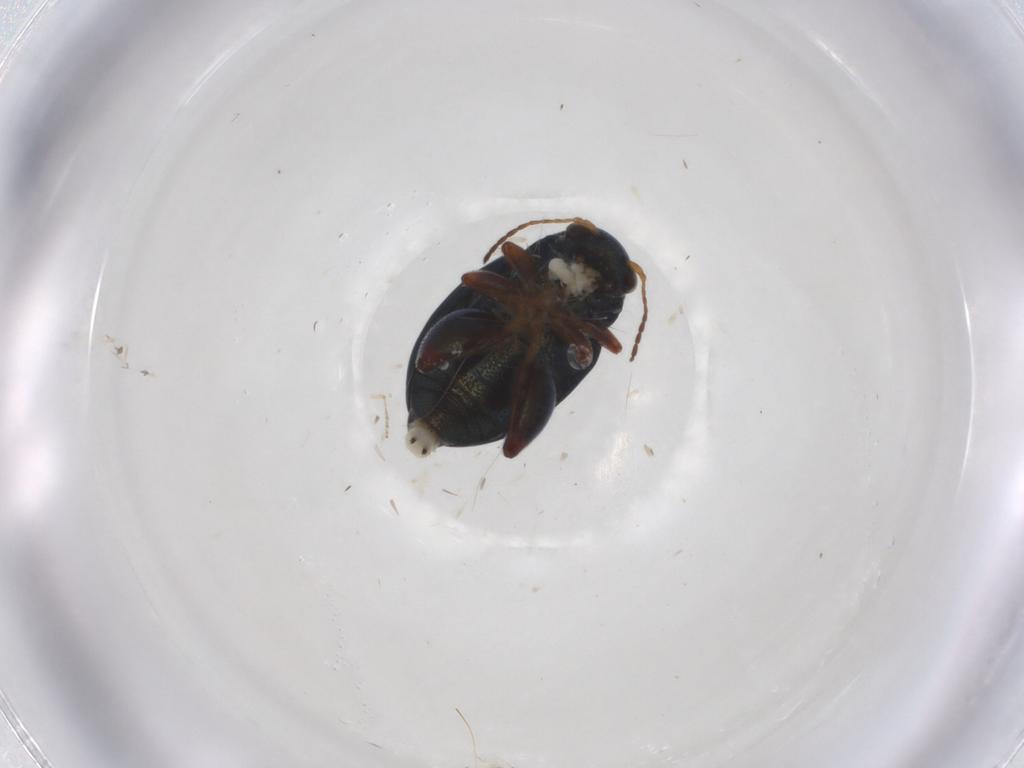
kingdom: Animalia
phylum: Arthropoda
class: Insecta
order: Coleoptera
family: Chrysomelidae
